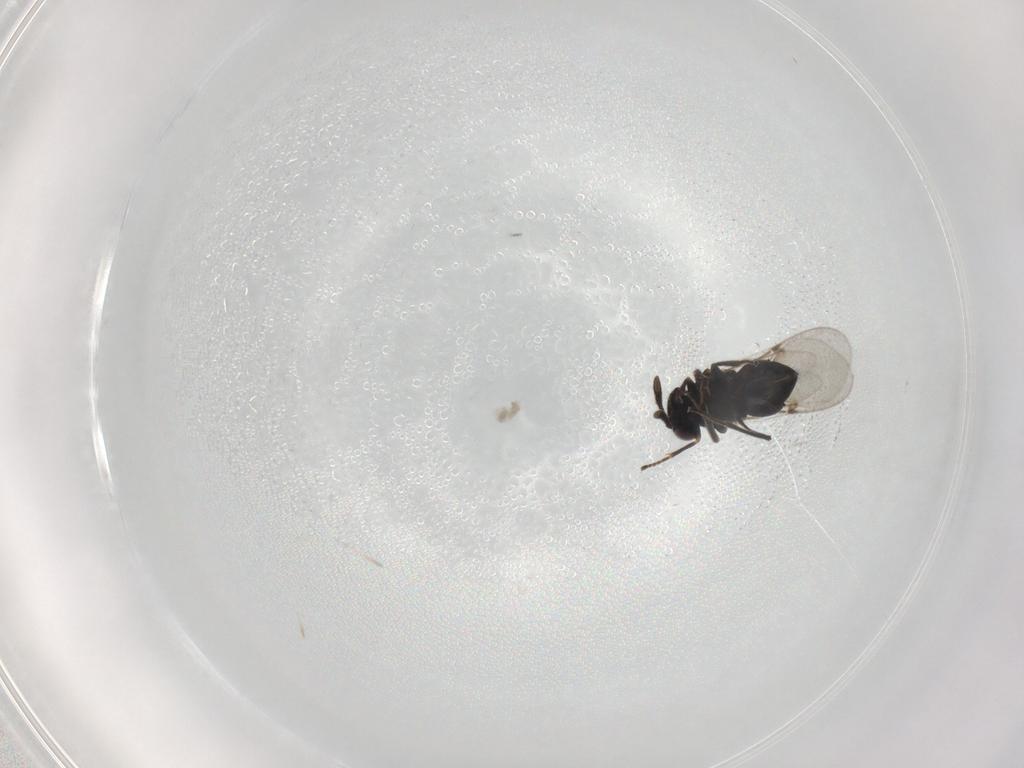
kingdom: Animalia
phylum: Arthropoda
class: Insecta
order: Hymenoptera
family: Encyrtidae
